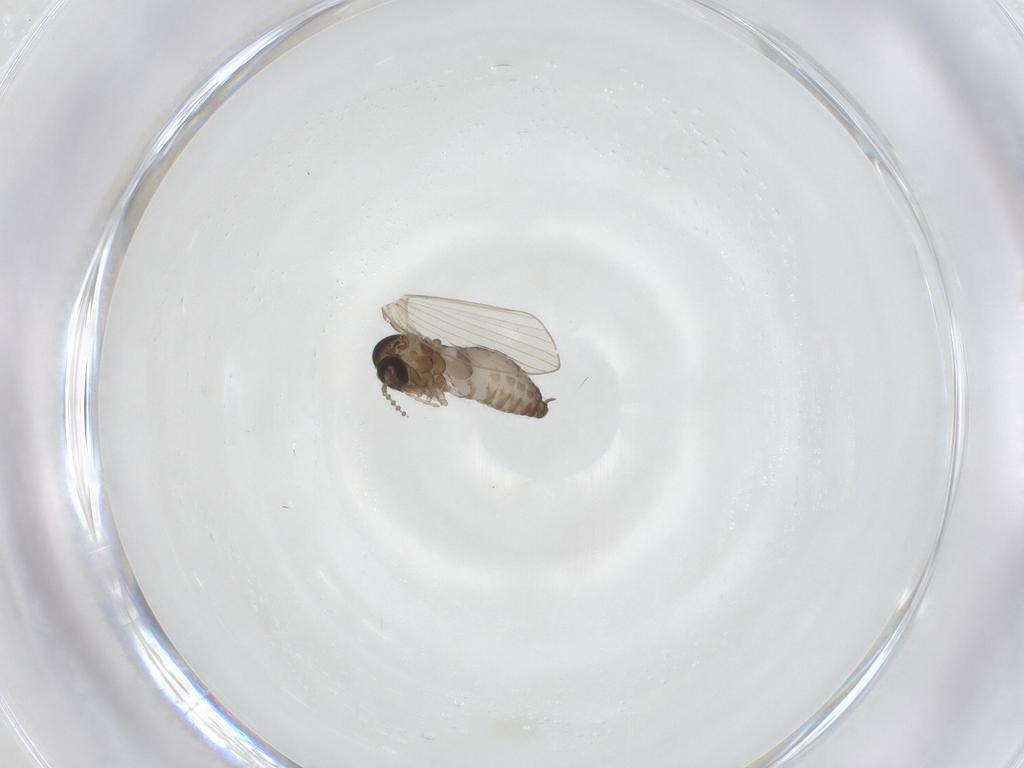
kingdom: Animalia
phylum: Arthropoda
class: Insecta
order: Diptera
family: Psychodidae
